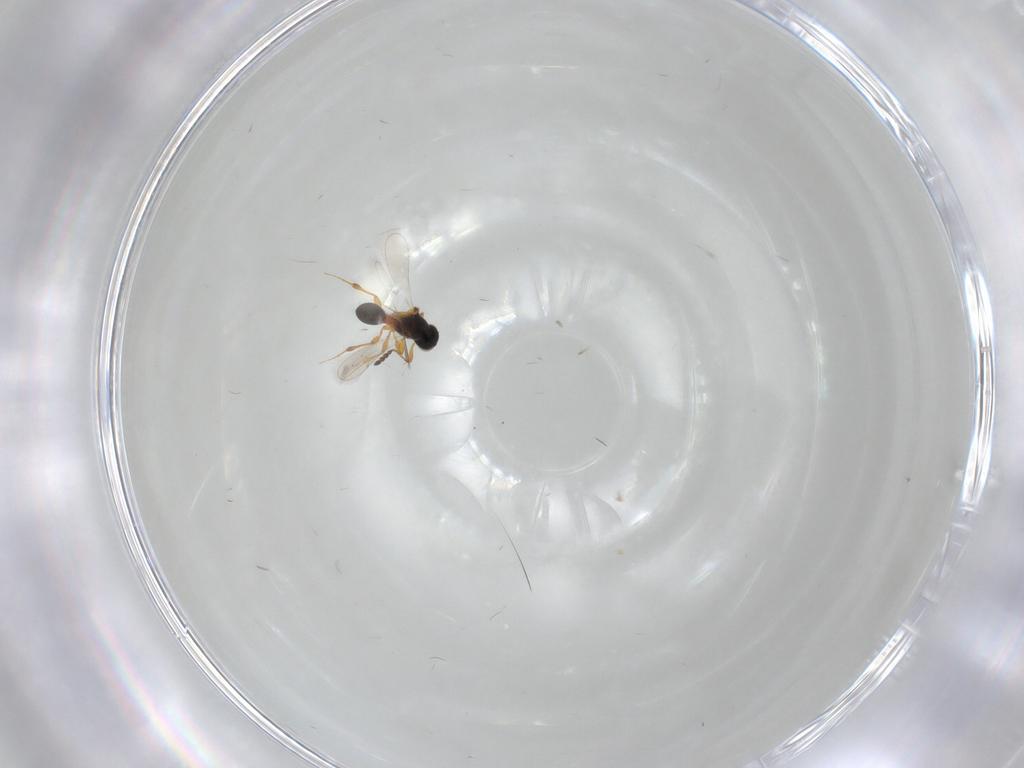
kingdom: Animalia
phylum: Arthropoda
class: Insecta
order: Hymenoptera
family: Platygastridae
